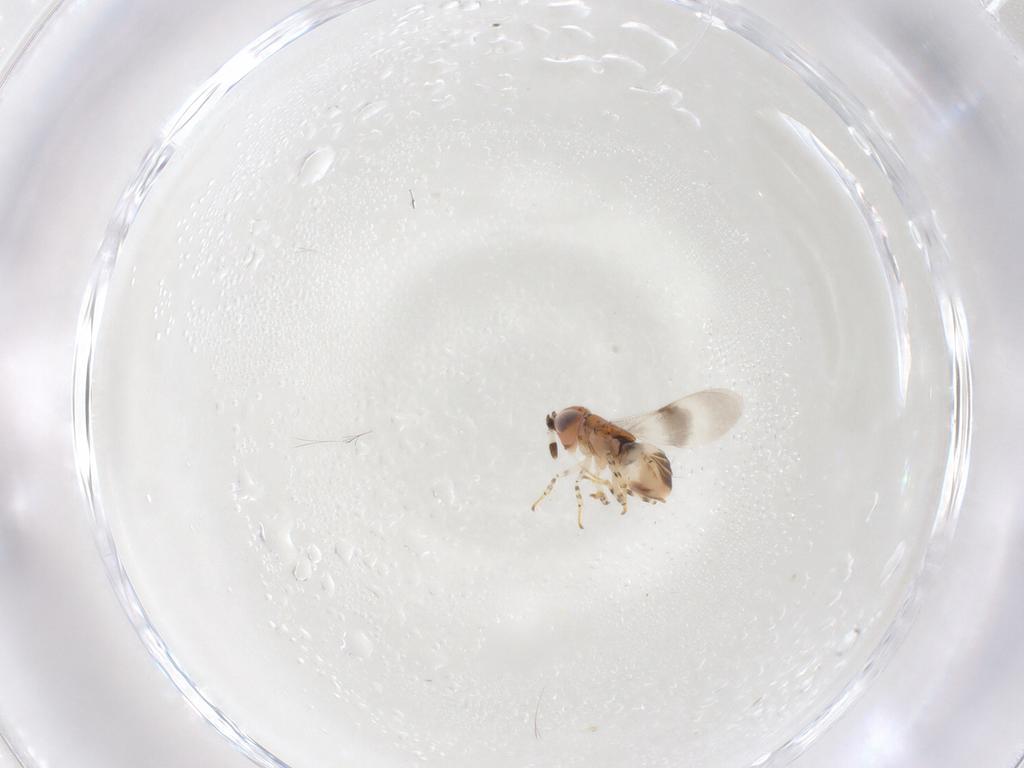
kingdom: Animalia
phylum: Arthropoda
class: Insecta
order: Hymenoptera
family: Encyrtidae
